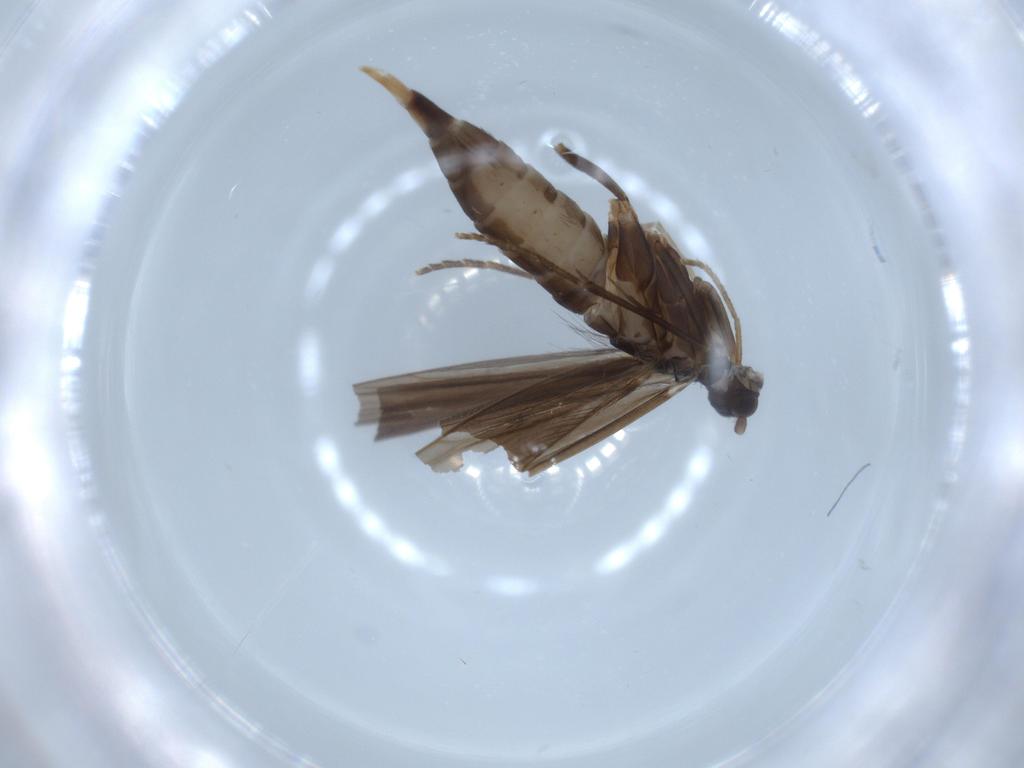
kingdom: Animalia
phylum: Arthropoda
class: Insecta
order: Trichoptera
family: Xiphocentronidae
